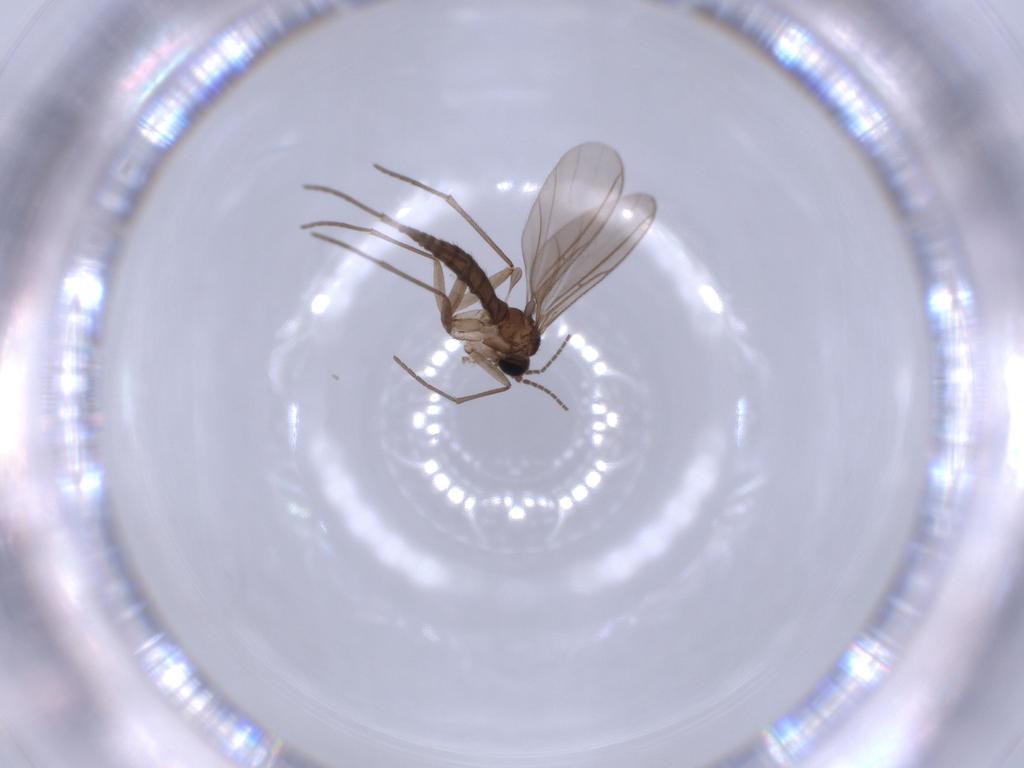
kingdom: Animalia
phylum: Arthropoda
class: Insecta
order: Diptera
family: Sciaridae
